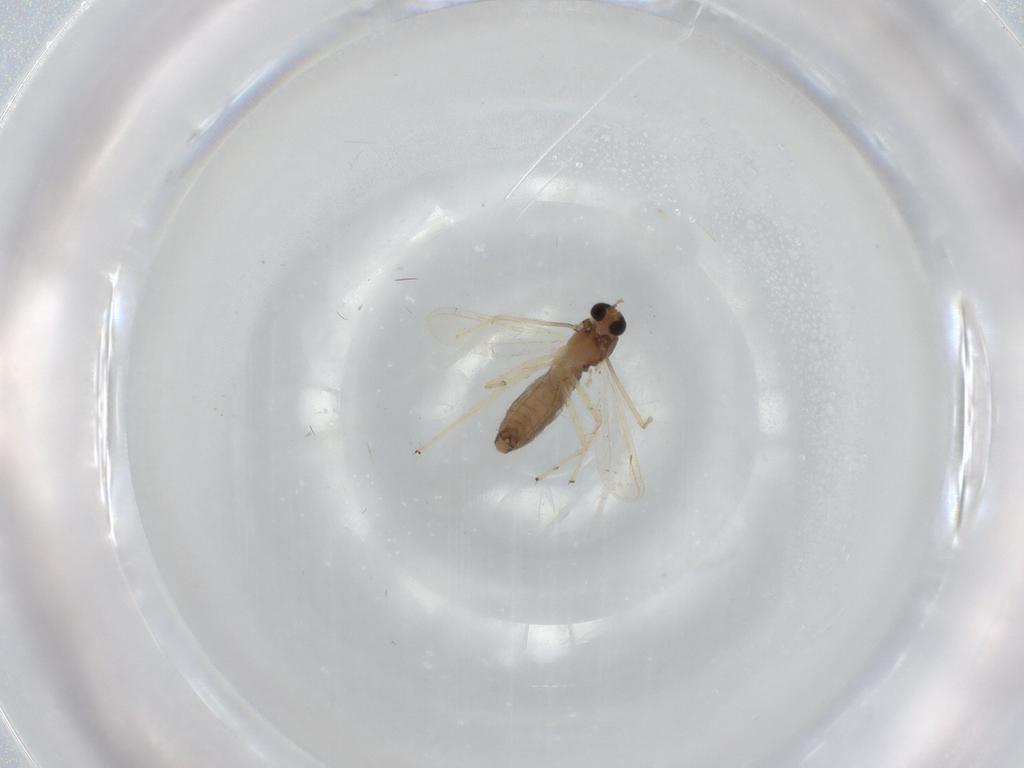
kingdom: Animalia
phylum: Arthropoda
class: Insecta
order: Diptera
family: Chironomidae
